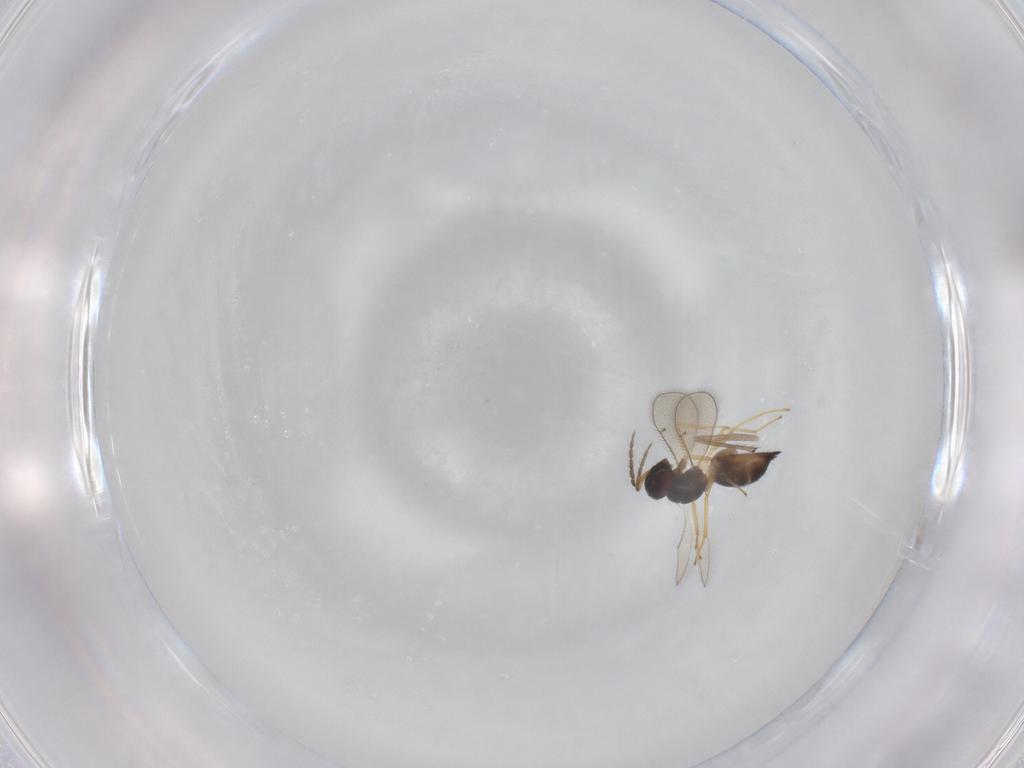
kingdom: Animalia
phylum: Arthropoda
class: Insecta
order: Hymenoptera
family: Eulophidae
